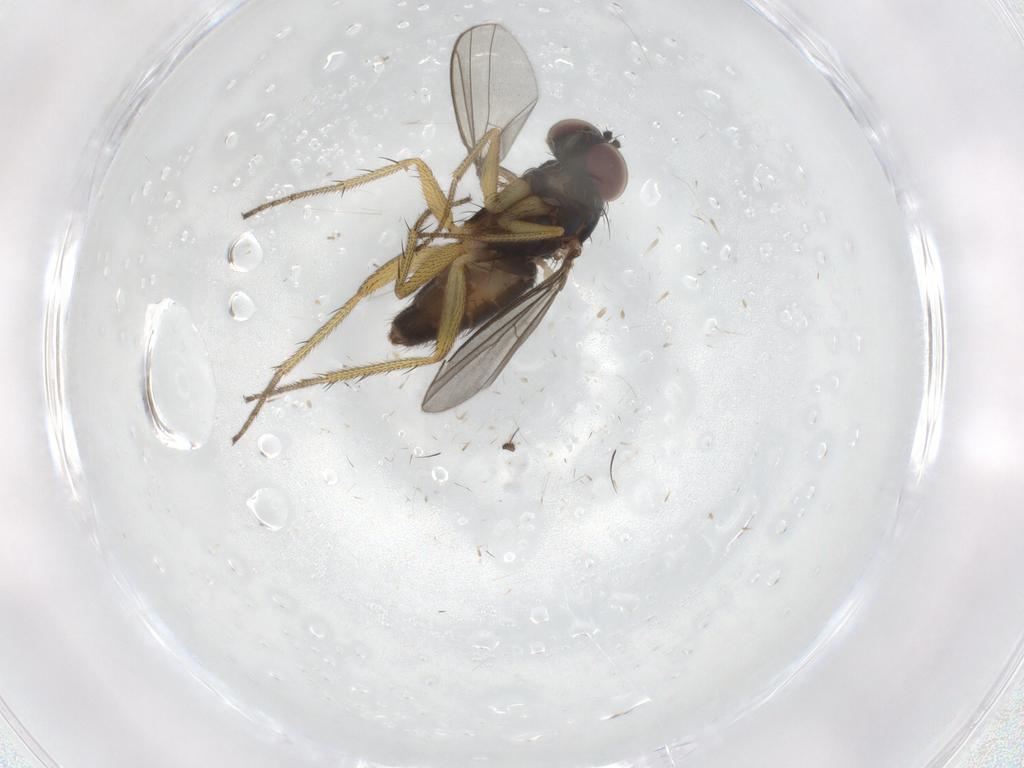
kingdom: Animalia
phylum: Arthropoda
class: Insecta
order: Diptera
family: Dolichopodidae
